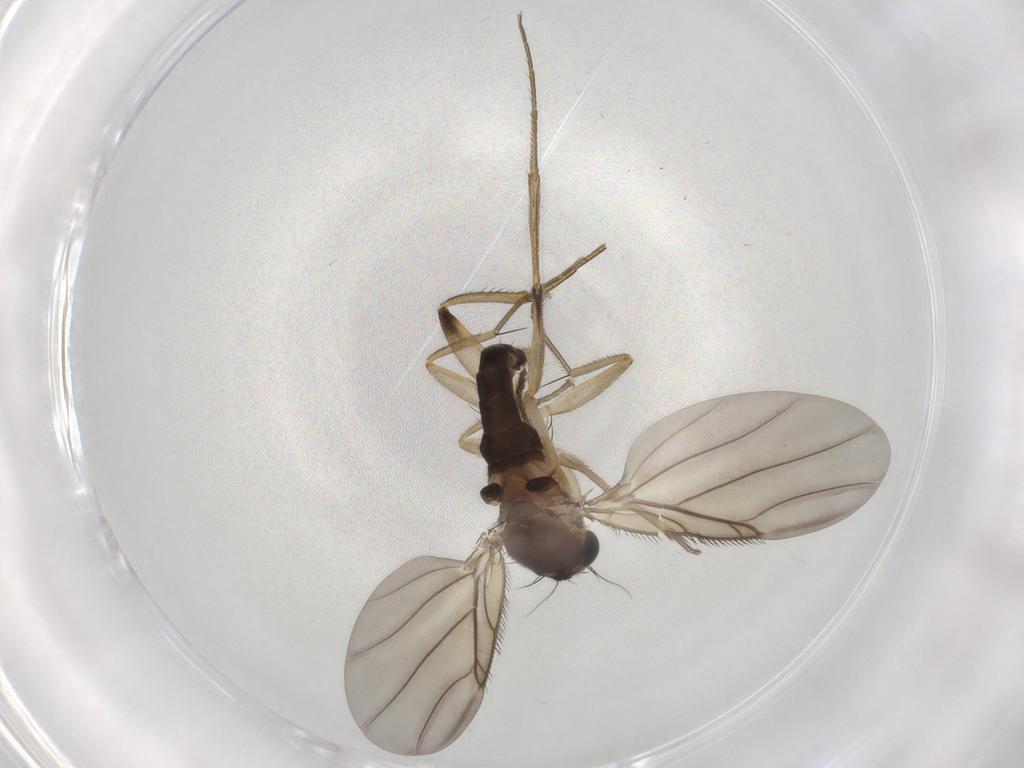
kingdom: Animalia
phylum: Arthropoda
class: Insecta
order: Diptera
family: Phoridae
